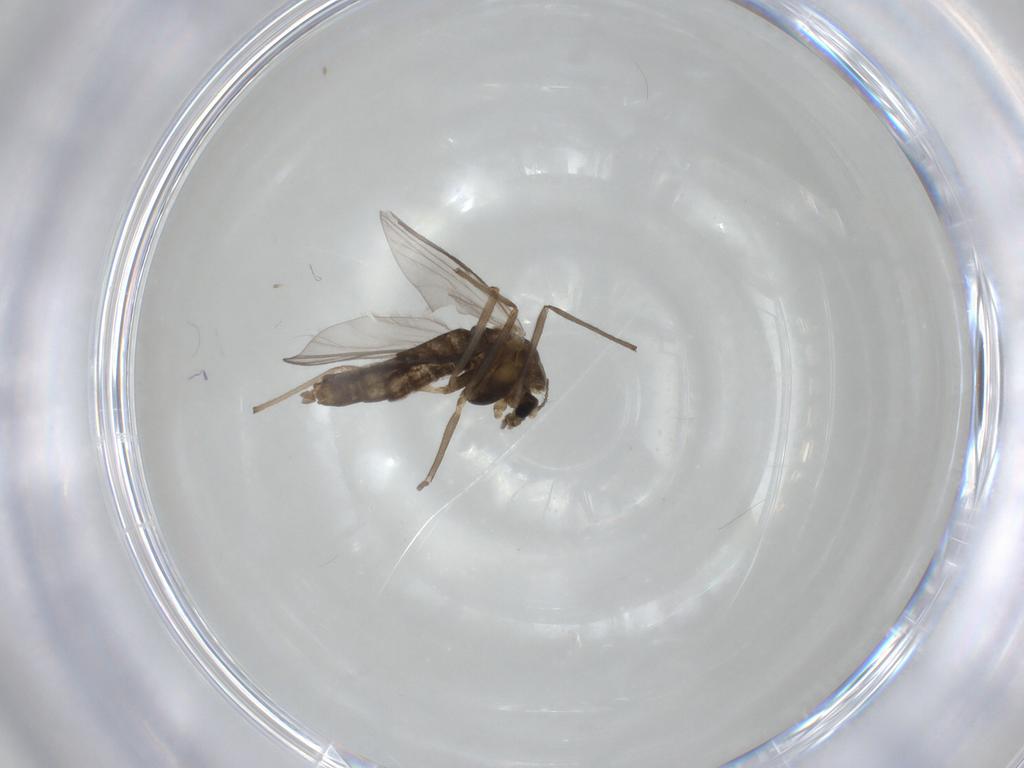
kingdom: Animalia
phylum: Arthropoda
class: Insecta
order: Diptera
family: Chironomidae
